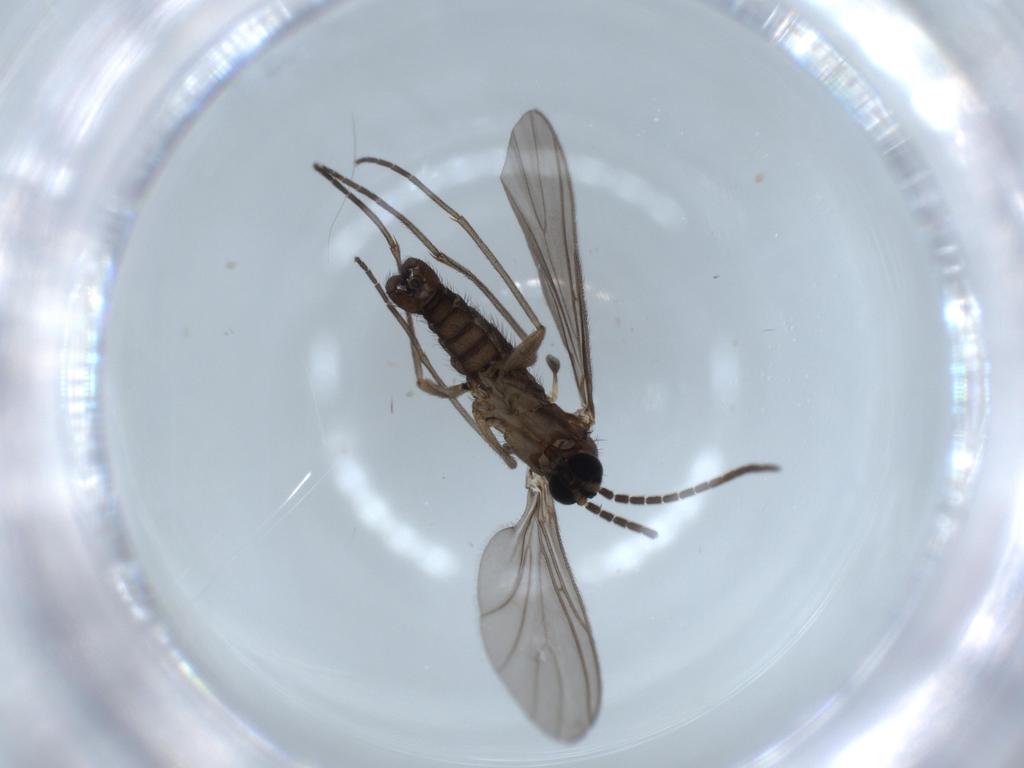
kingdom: Animalia
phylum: Arthropoda
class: Insecta
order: Diptera
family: Sciaridae
